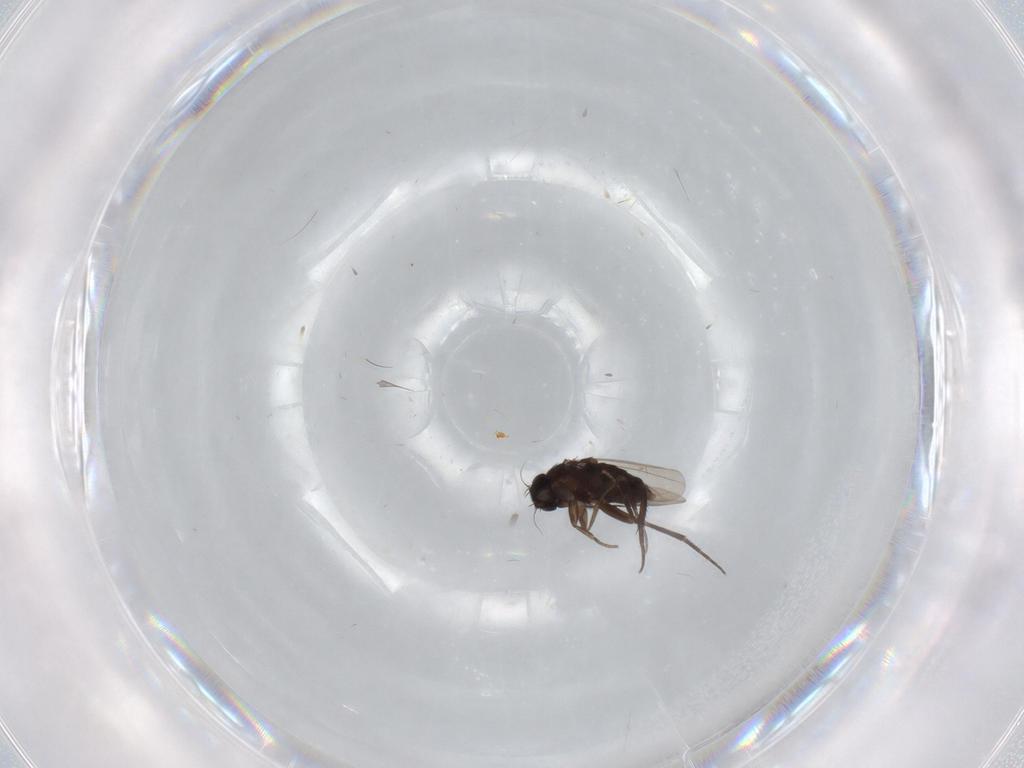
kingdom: Animalia
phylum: Arthropoda
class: Insecta
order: Diptera
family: Phoridae
